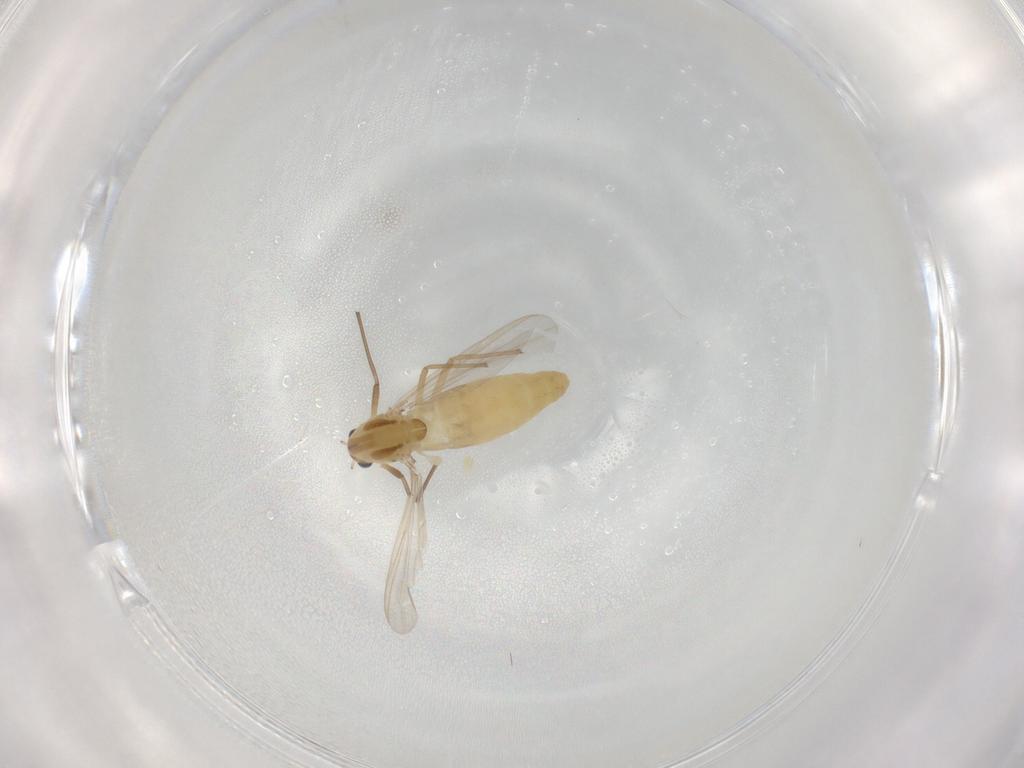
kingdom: Animalia
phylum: Arthropoda
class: Insecta
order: Diptera
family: Chironomidae
